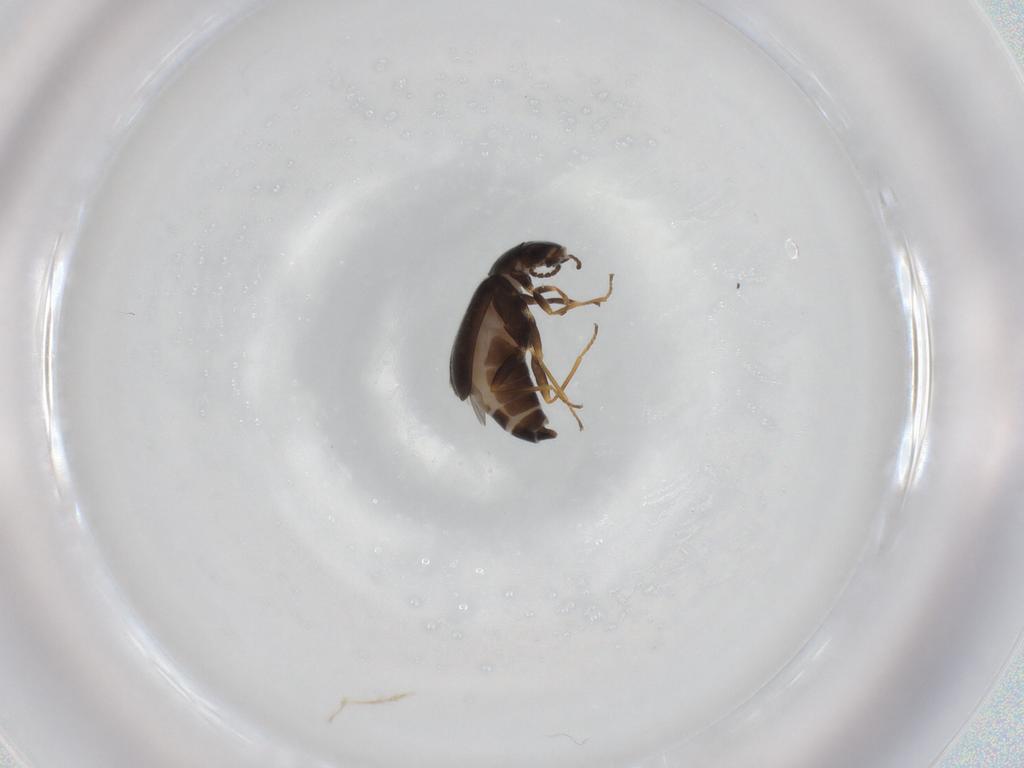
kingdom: Animalia
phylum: Arthropoda
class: Insecta
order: Coleoptera
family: Melyridae
